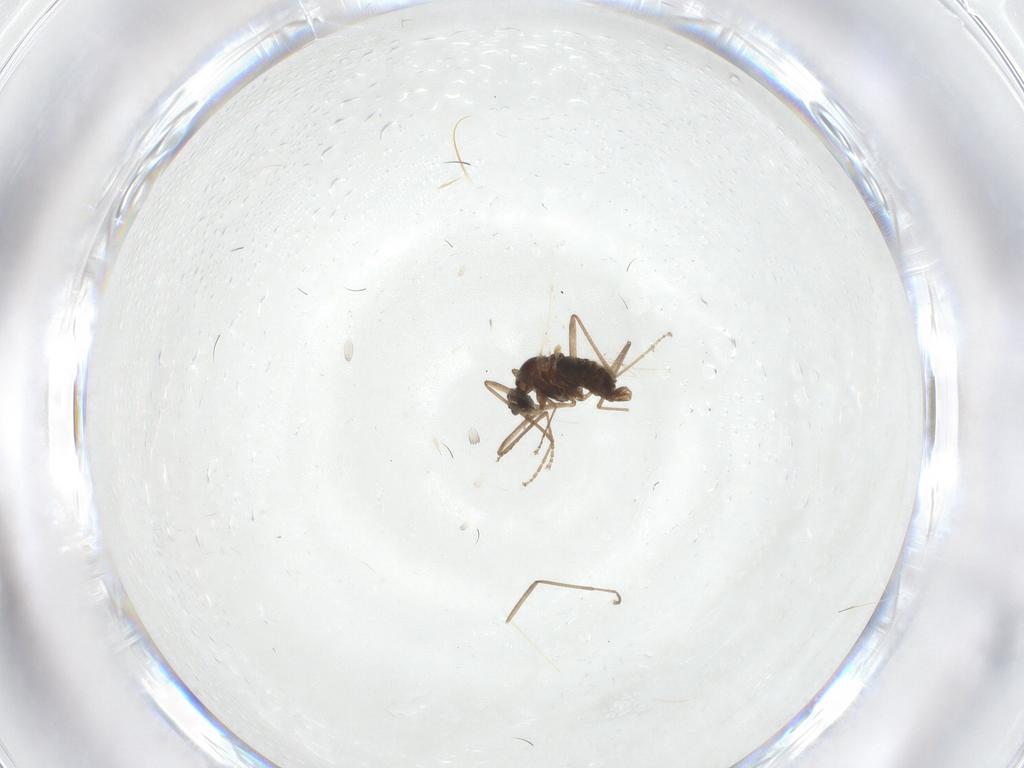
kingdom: Animalia
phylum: Arthropoda
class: Insecta
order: Diptera
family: Cecidomyiidae
